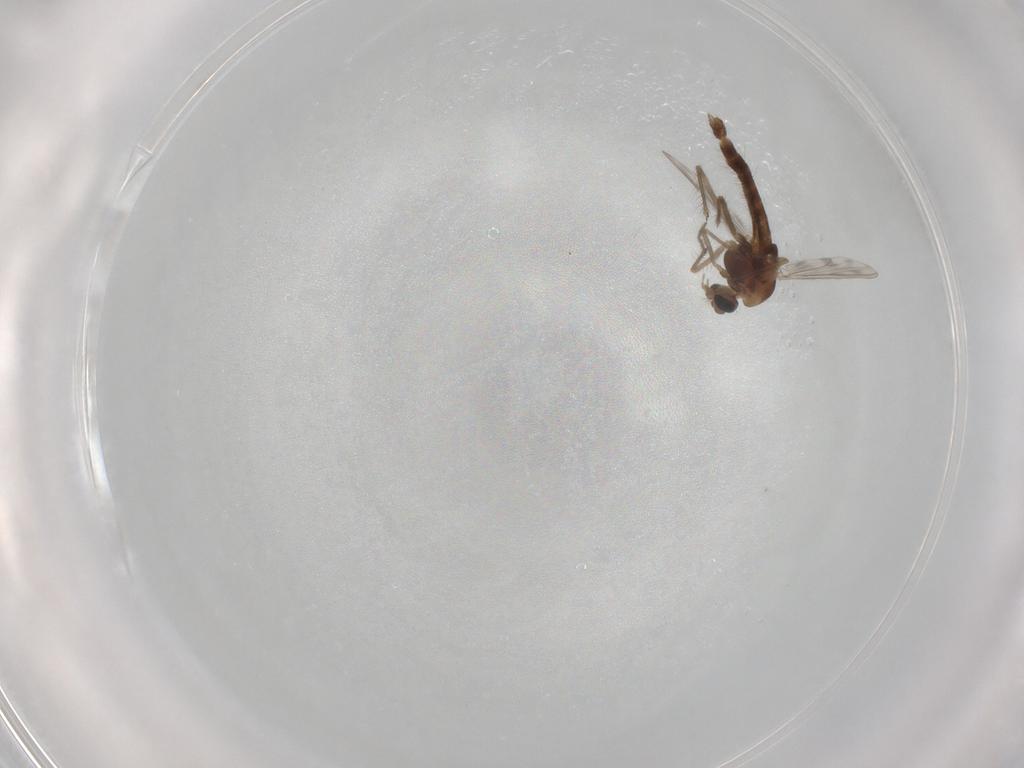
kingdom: Animalia
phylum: Arthropoda
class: Insecta
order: Diptera
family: Chironomidae
